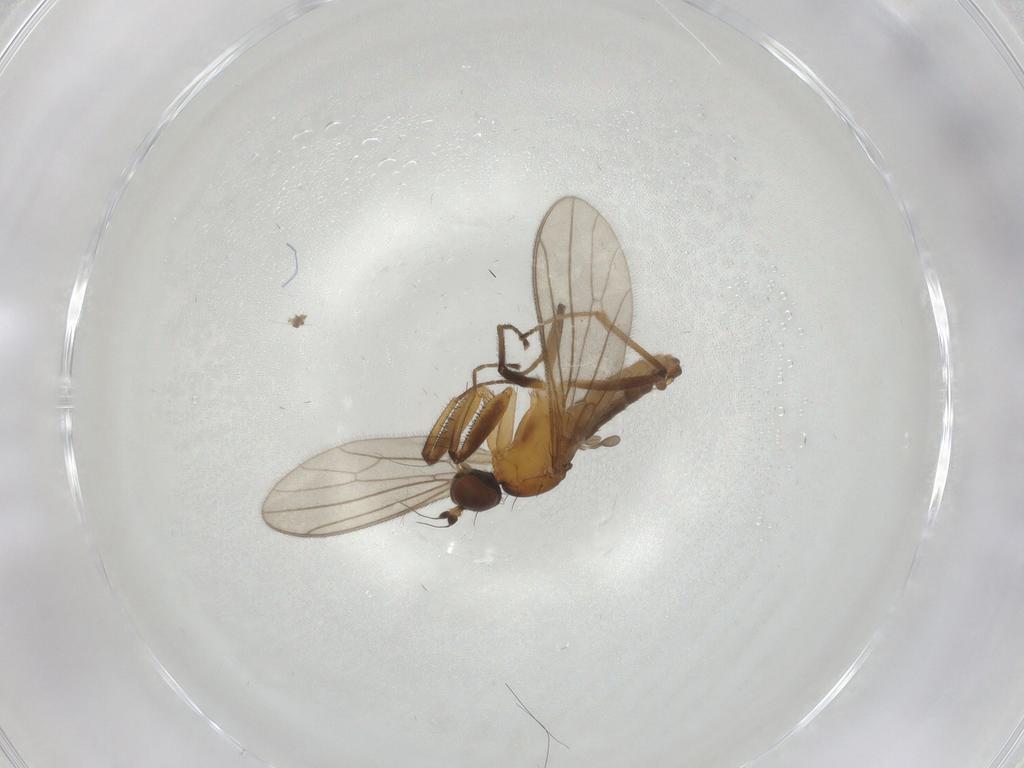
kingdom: Animalia
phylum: Arthropoda
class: Insecta
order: Diptera
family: Empididae
